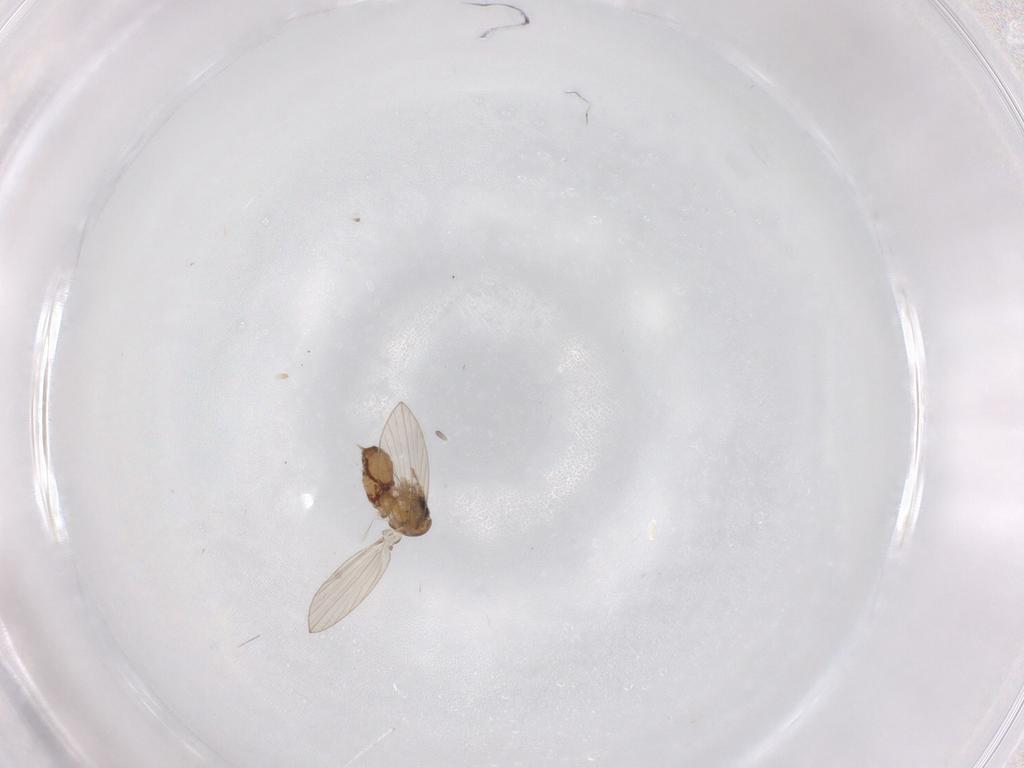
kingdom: Animalia
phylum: Arthropoda
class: Insecta
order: Diptera
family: Psychodidae
